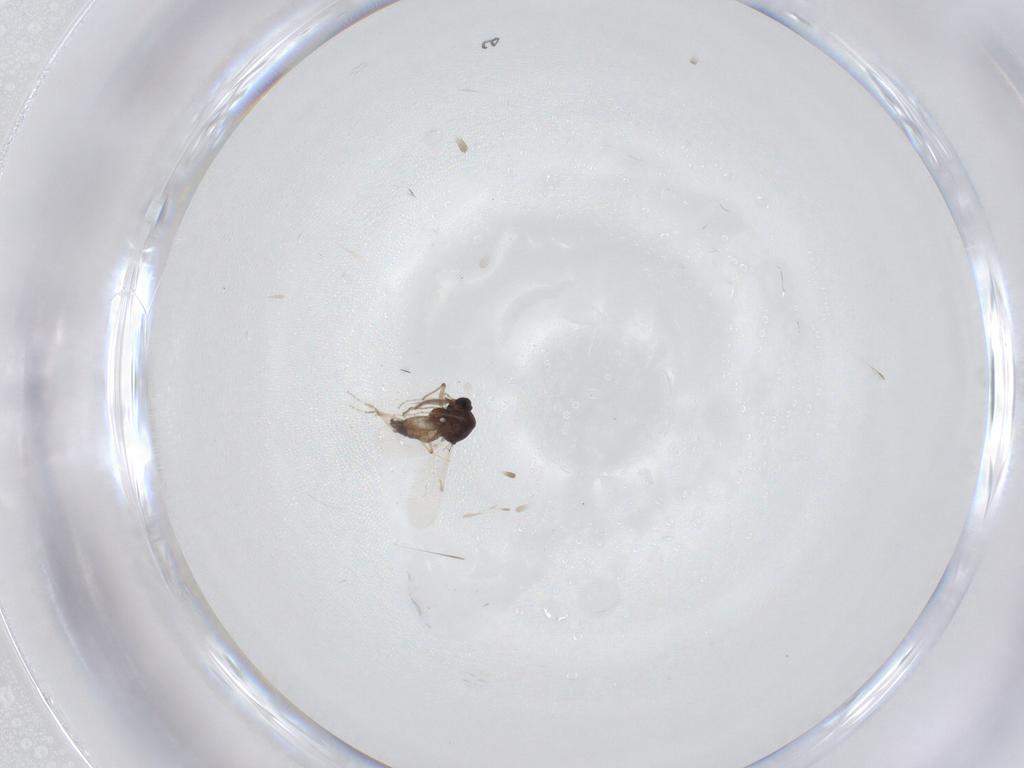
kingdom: Animalia
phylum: Arthropoda
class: Insecta
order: Diptera
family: Ceratopogonidae
